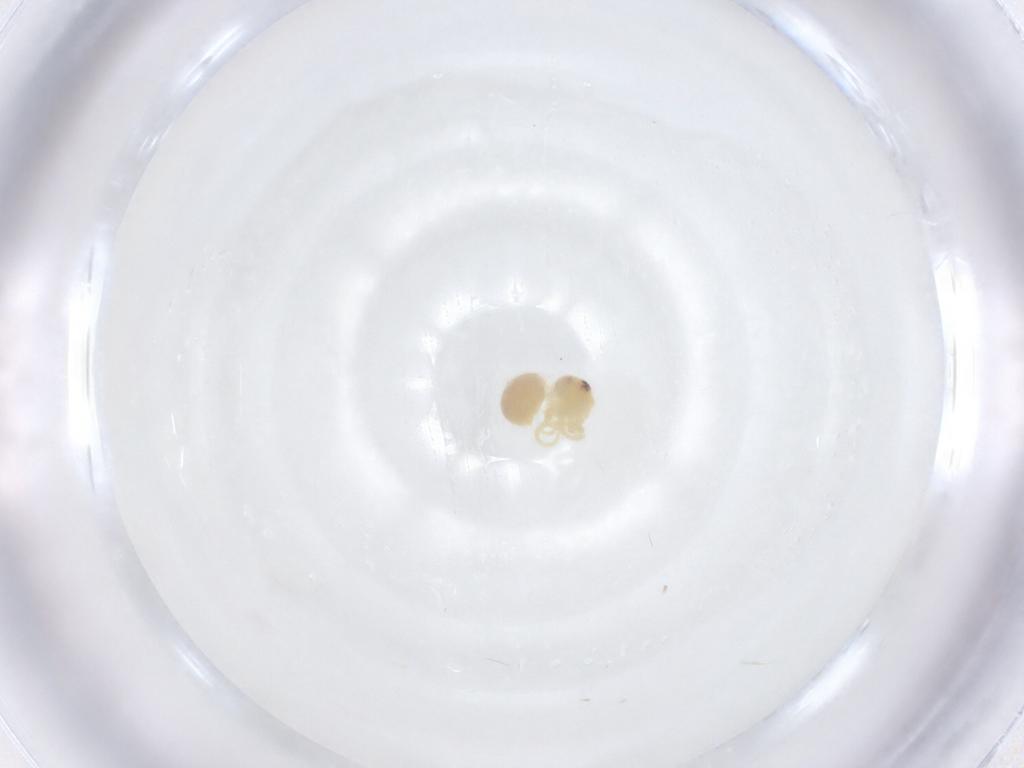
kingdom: Animalia
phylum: Arthropoda
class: Arachnida
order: Araneae
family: Pholcidae
